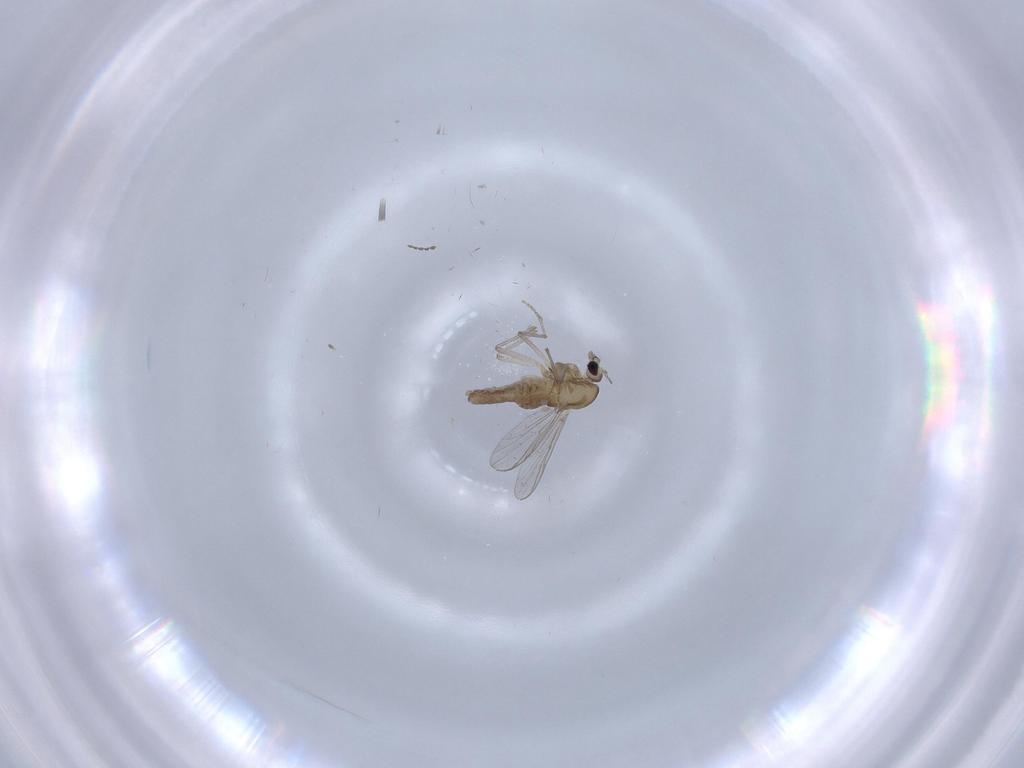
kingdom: Animalia
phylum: Arthropoda
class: Insecta
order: Diptera
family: Chironomidae
